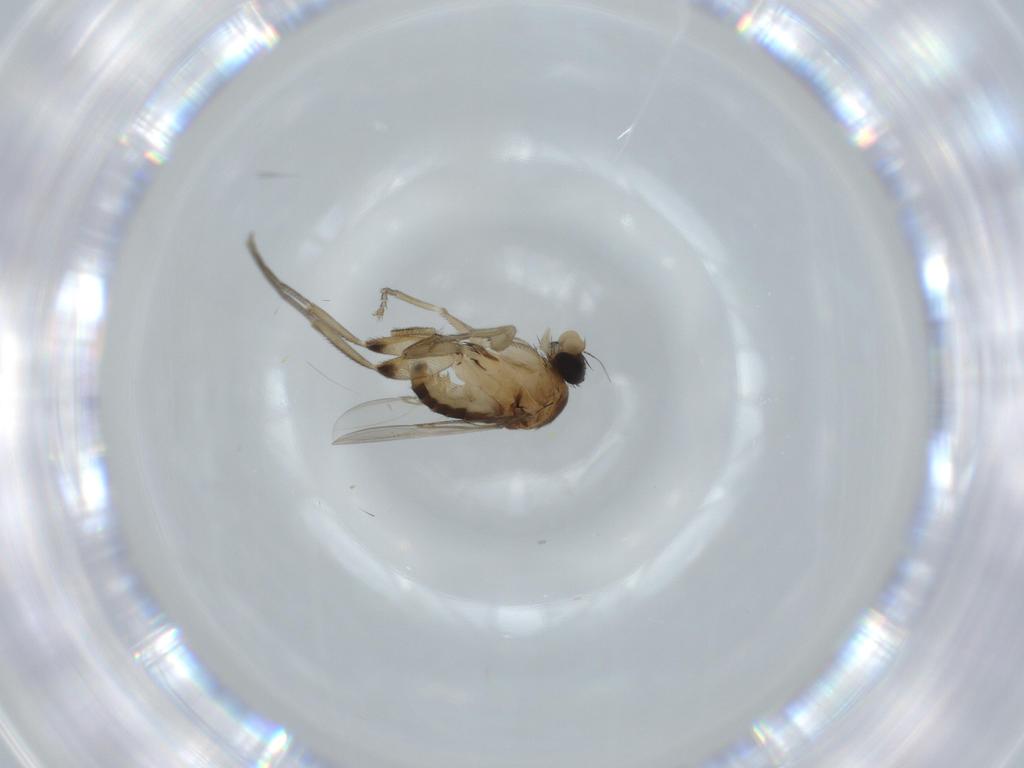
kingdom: Animalia
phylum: Arthropoda
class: Insecta
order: Diptera
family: Phoridae
